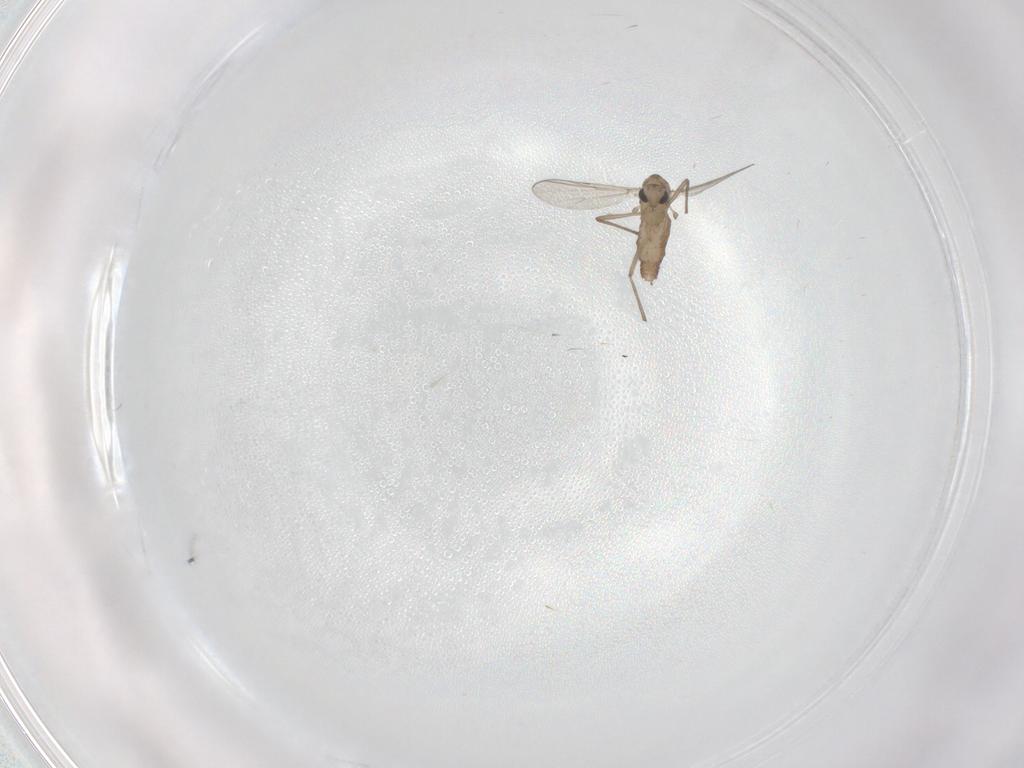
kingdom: Animalia
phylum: Arthropoda
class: Insecta
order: Diptera
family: Chironomidae
